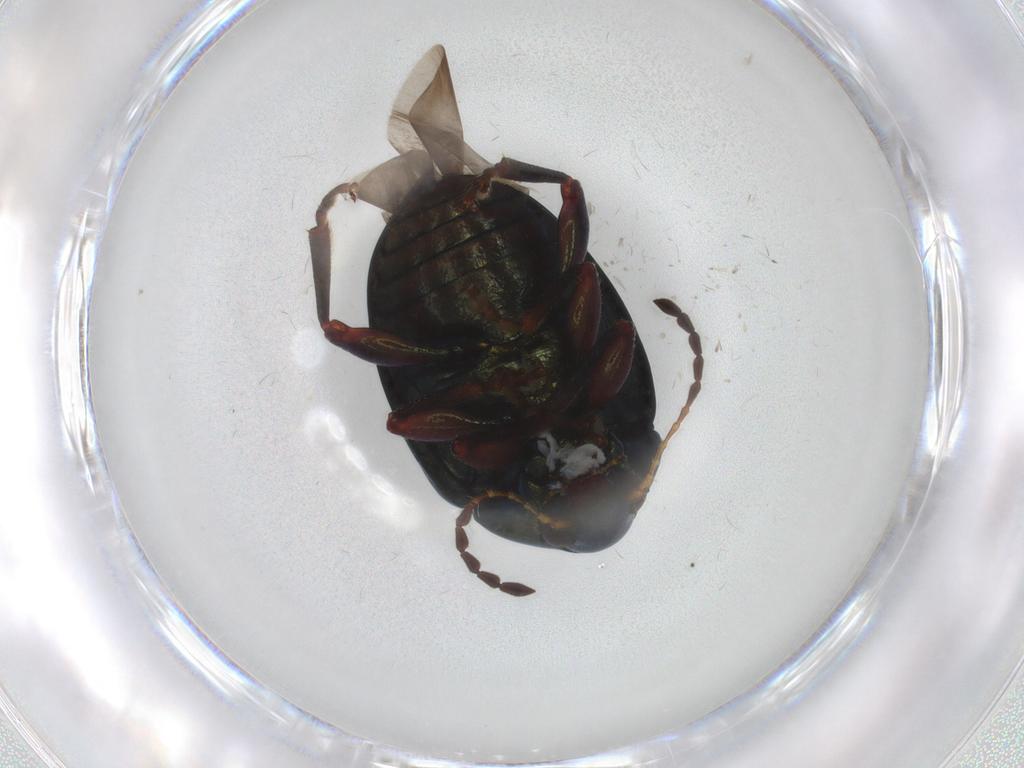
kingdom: Animalia
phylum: Arthropoda
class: Insecta
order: Coleoptera
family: Chrysomelidae
